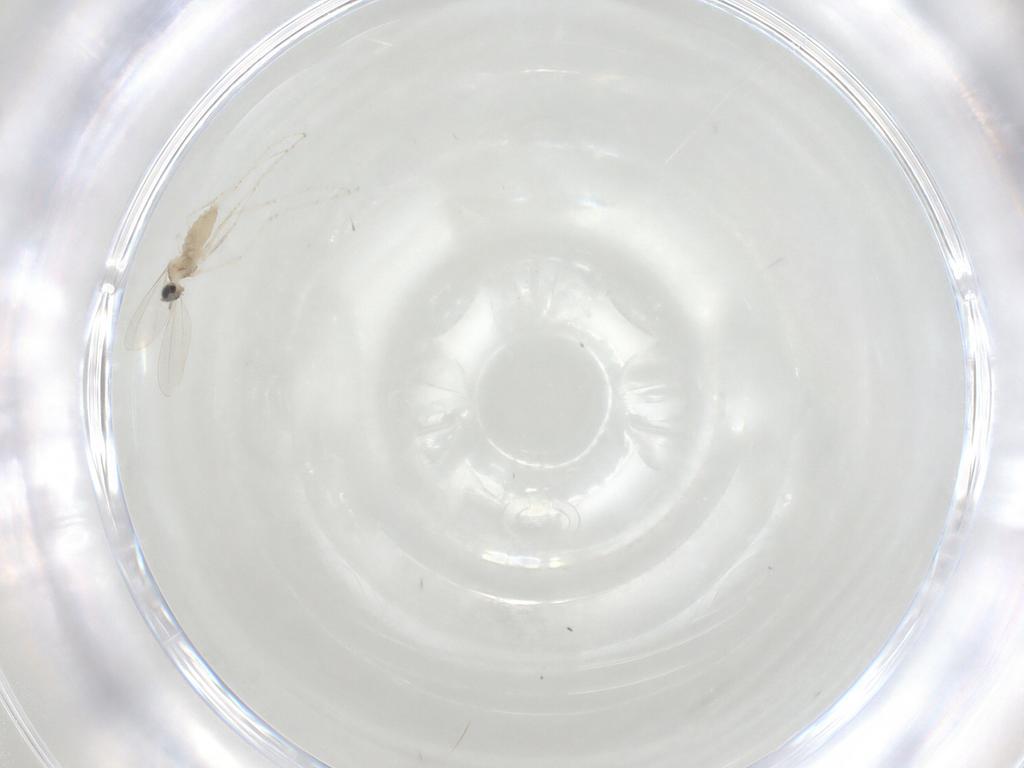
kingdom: Animalia
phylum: Arthropoda
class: Insecta
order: Diptera
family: Cecidomyiidae
